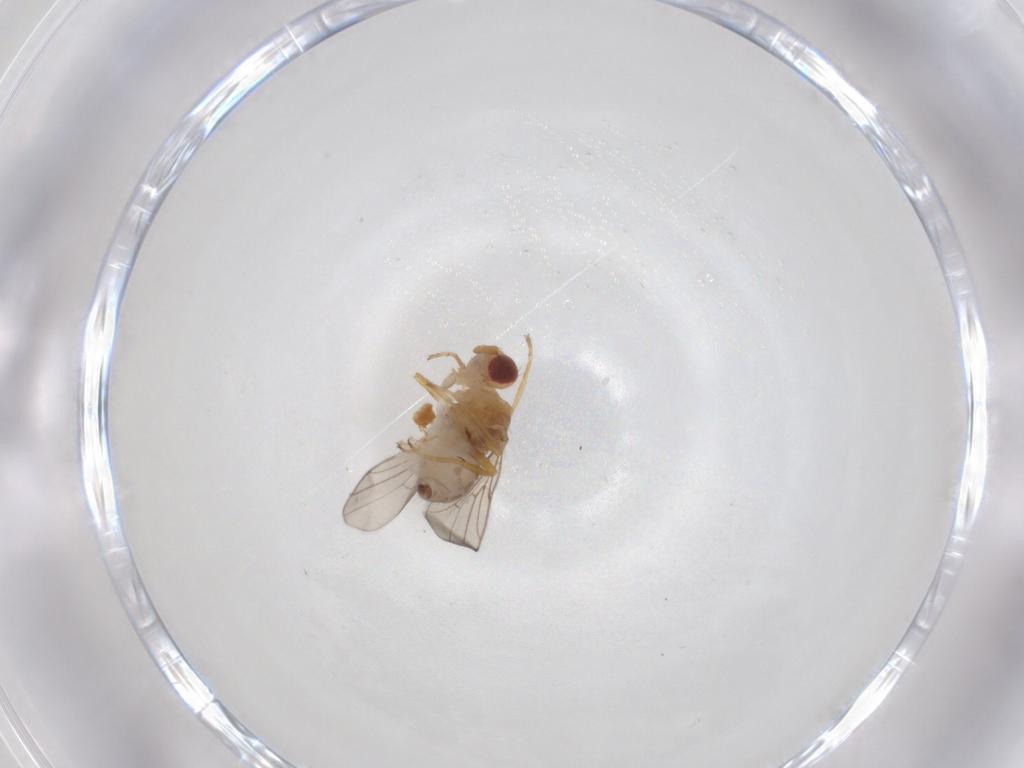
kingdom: Animalia
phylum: Arthropoda
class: Insecta
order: Diptera
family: Chloropidae
